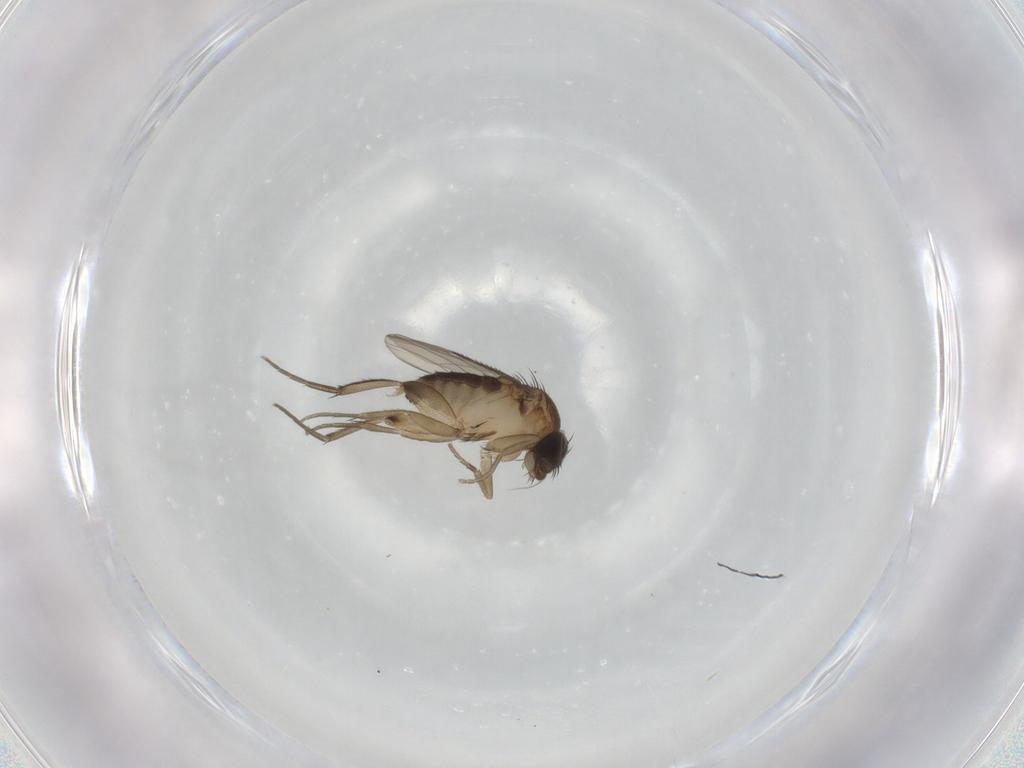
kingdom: Animalia
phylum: Arthropoda
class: Insecta
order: Diptera
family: Phoridae
